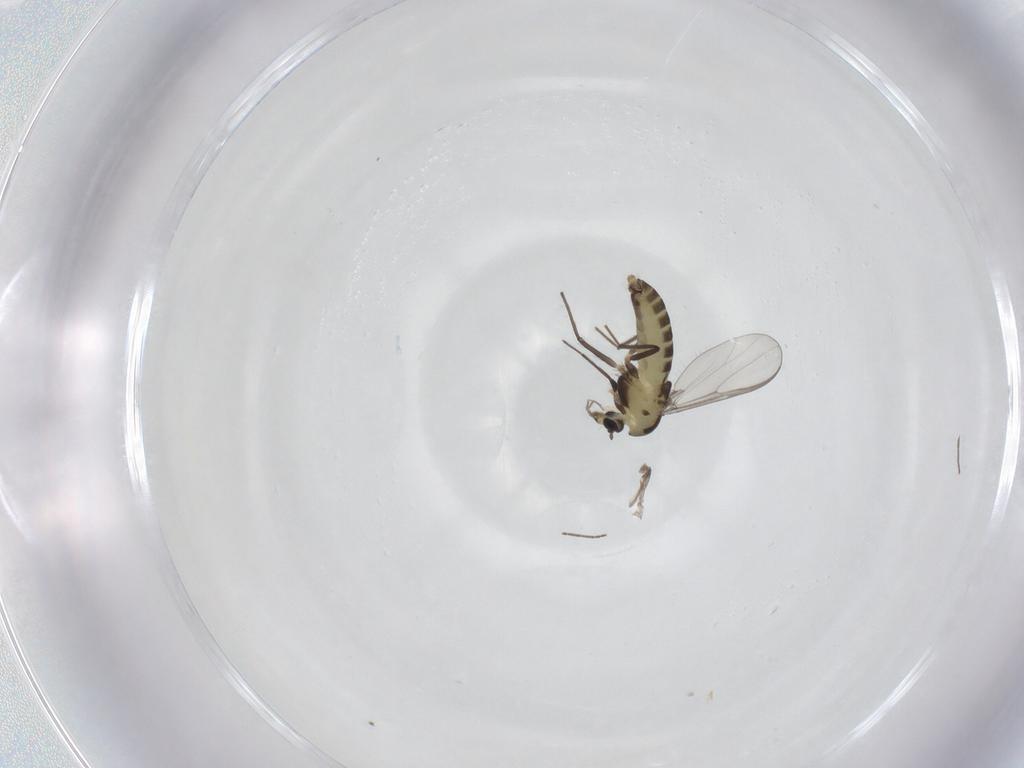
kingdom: Animalia
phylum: Arthropoda
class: Insecta
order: Diptera
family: Chironomidae
